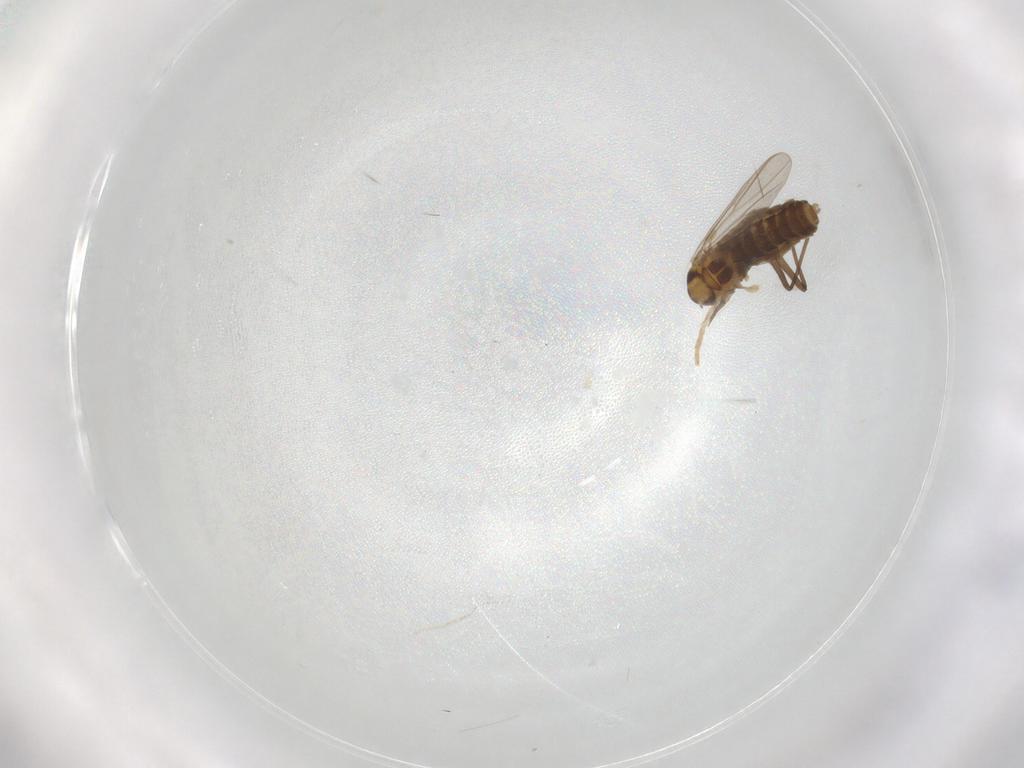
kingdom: Animalia
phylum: Arthropoda
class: Insecta
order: Diptera
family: Chironomidae
